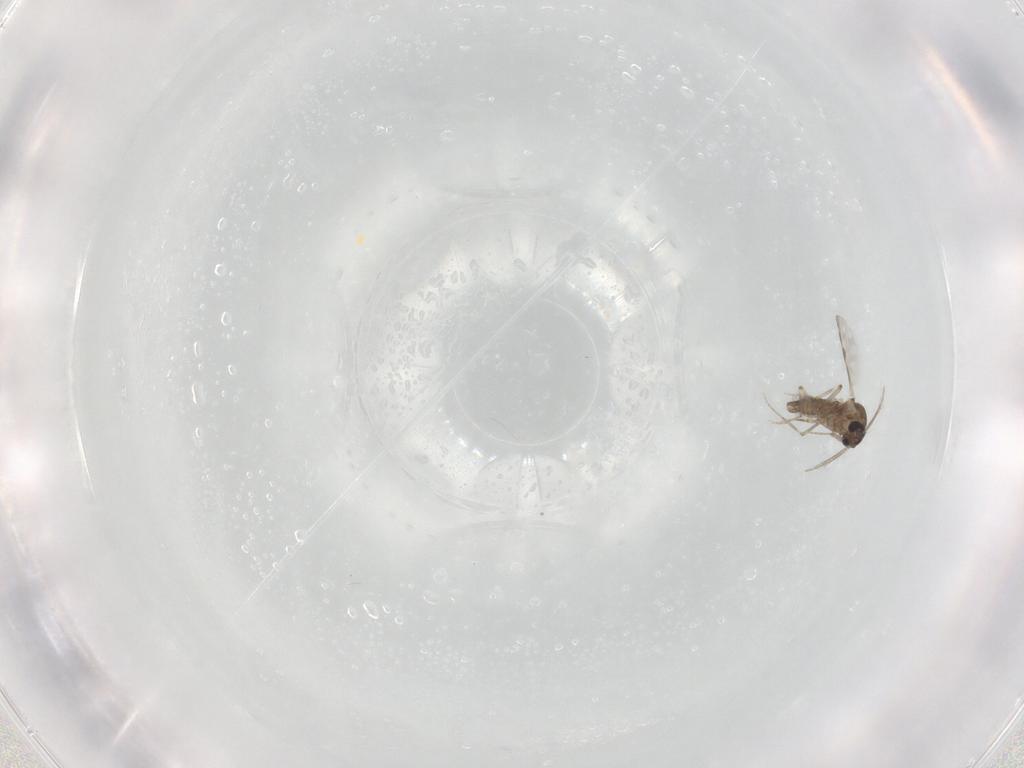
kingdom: Animalia
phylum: Arthropoda
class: Insecta
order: Diptera
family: Ceratopogonidae
